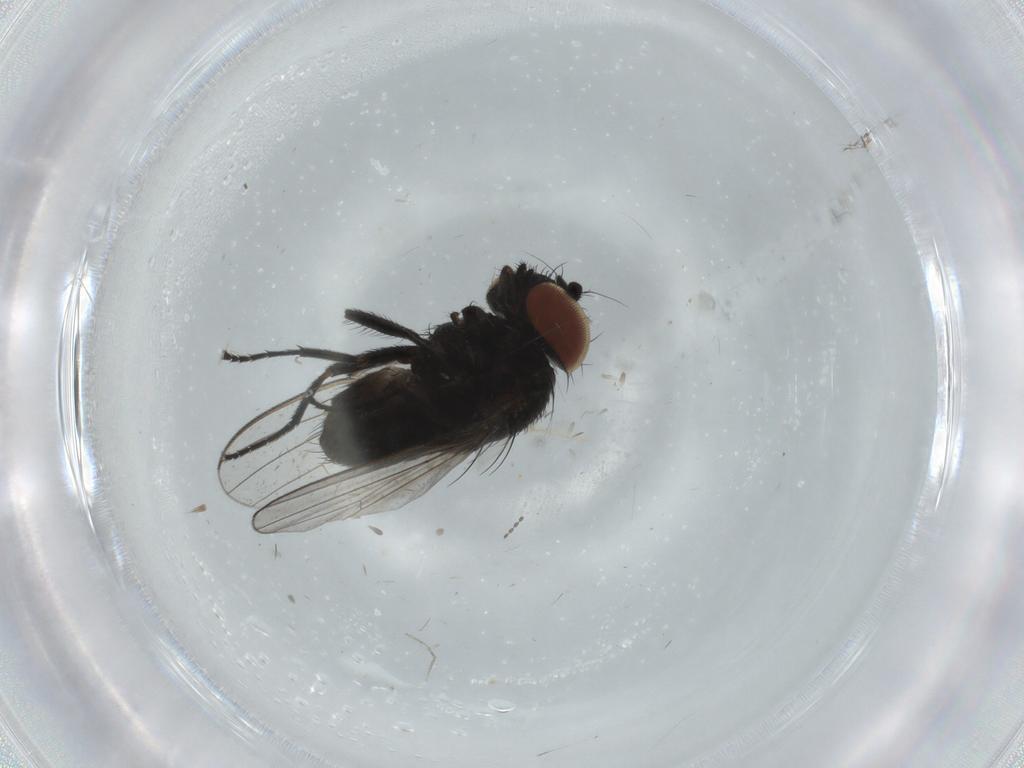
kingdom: Animalia
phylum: Arthropoda
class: Insecta
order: Diptera
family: Milichiidae
